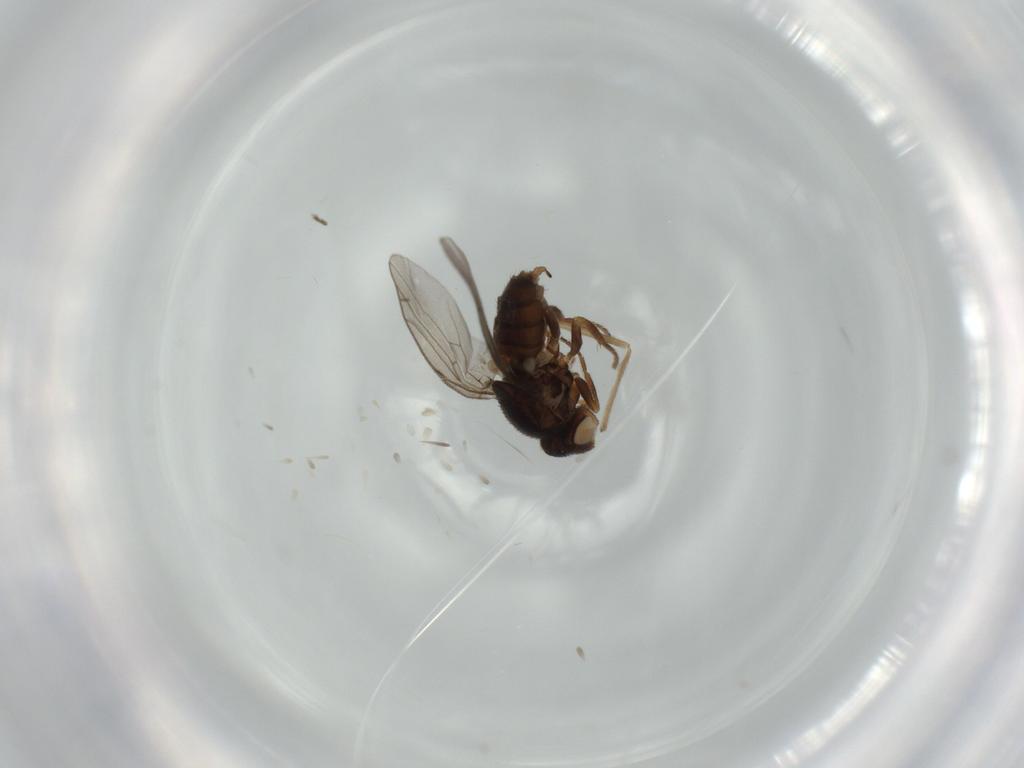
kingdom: Animalia
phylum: Arthropoda
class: Insecta
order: Diptera
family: Chloropidae
